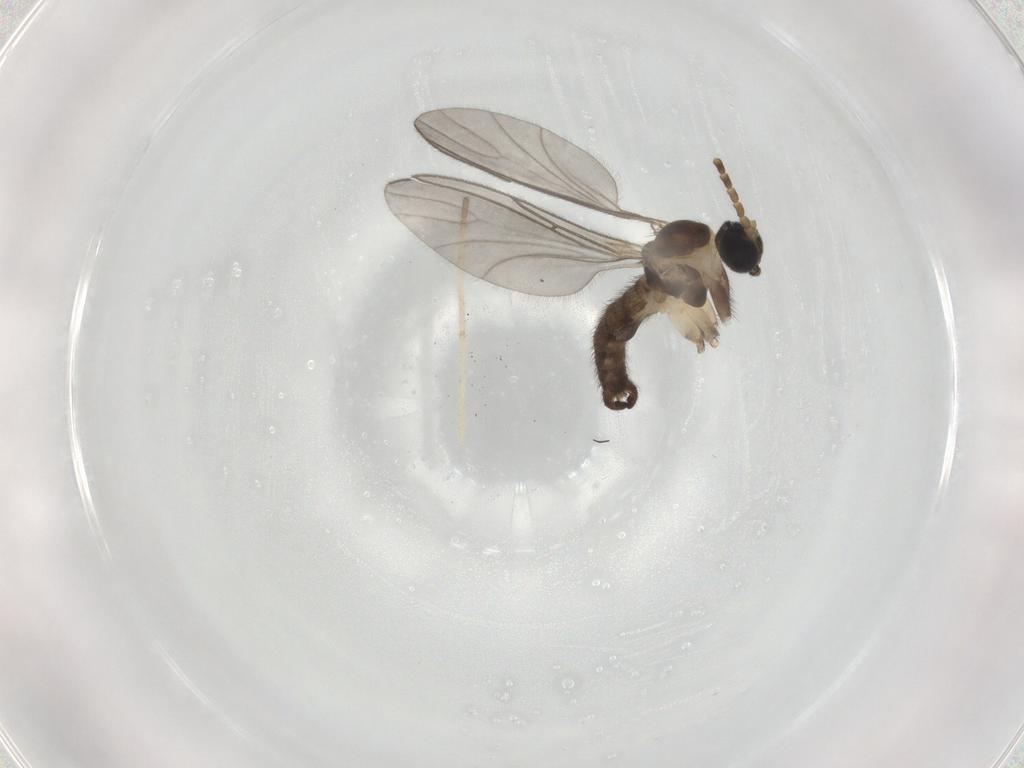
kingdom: Animalia
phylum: Arthropoda
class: Insecta
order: Diptera
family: Sciaridae
